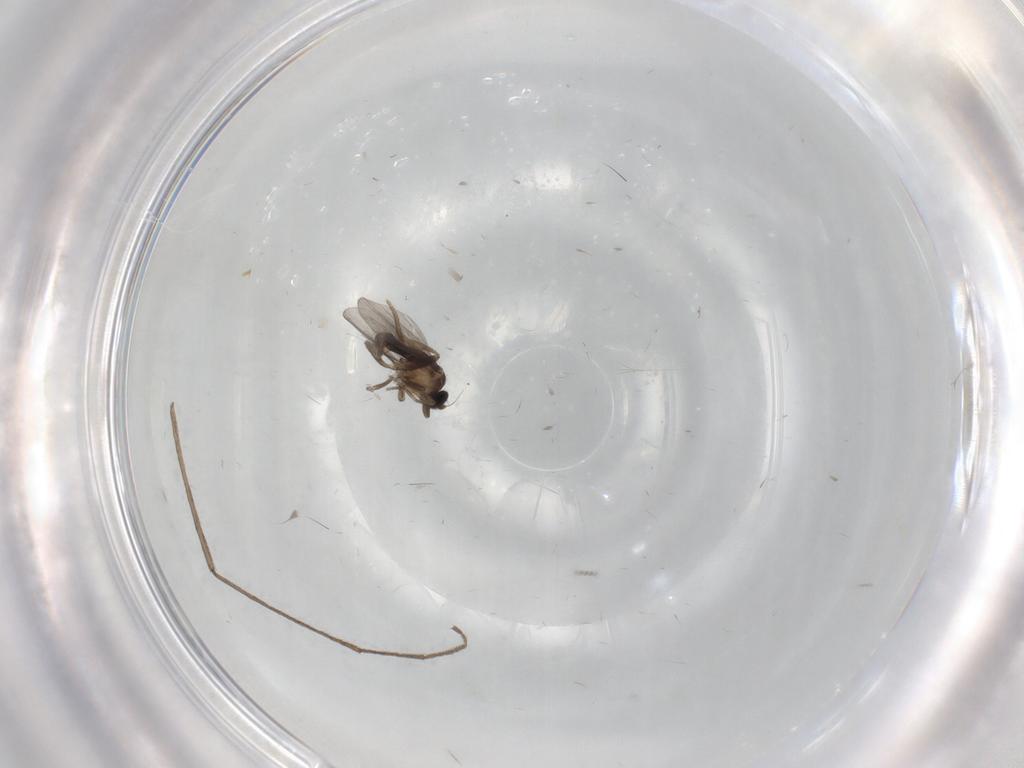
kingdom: Animalia
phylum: Arthropoda
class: Insecta
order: Diptera
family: Limoniidae
